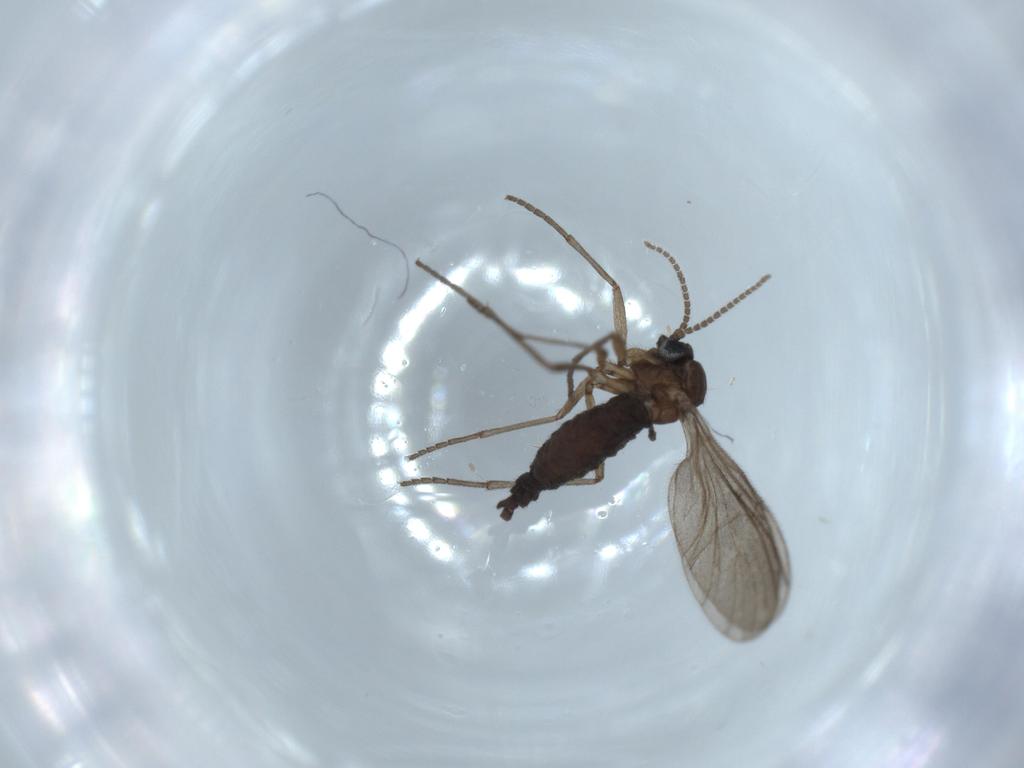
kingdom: Animalia
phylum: Arthropoda
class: Insecta
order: Diptera
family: Sciaridae
